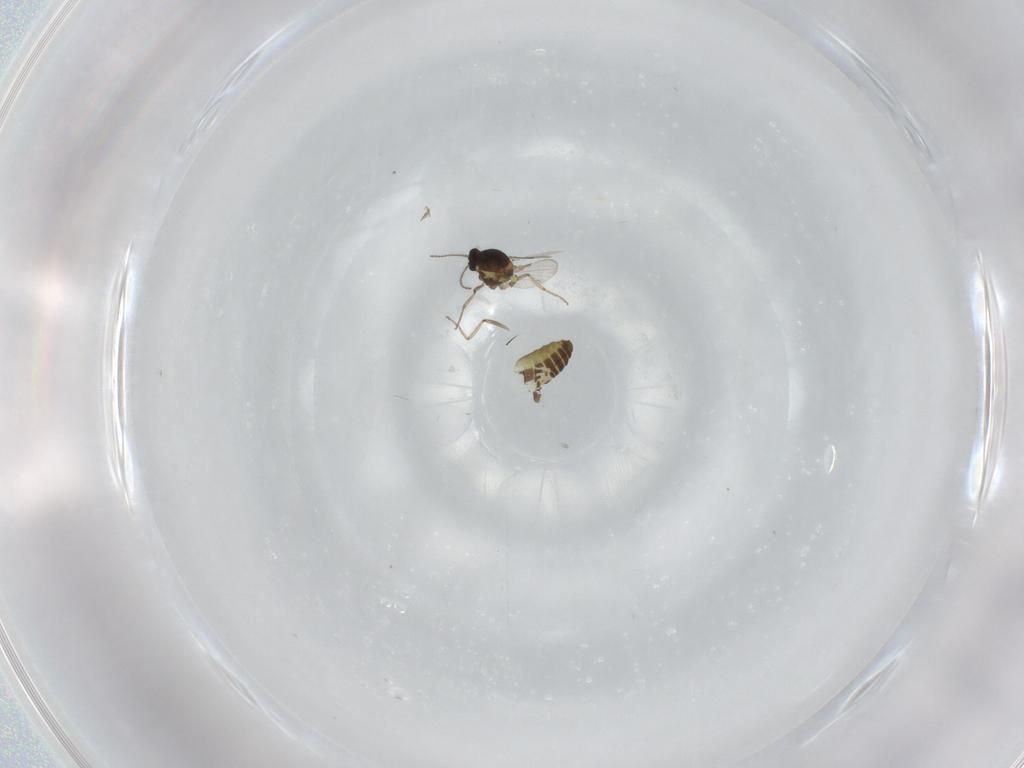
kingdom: Animalia
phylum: Arthropoda
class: Insecta
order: Diptera
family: Ceratopogonidae
